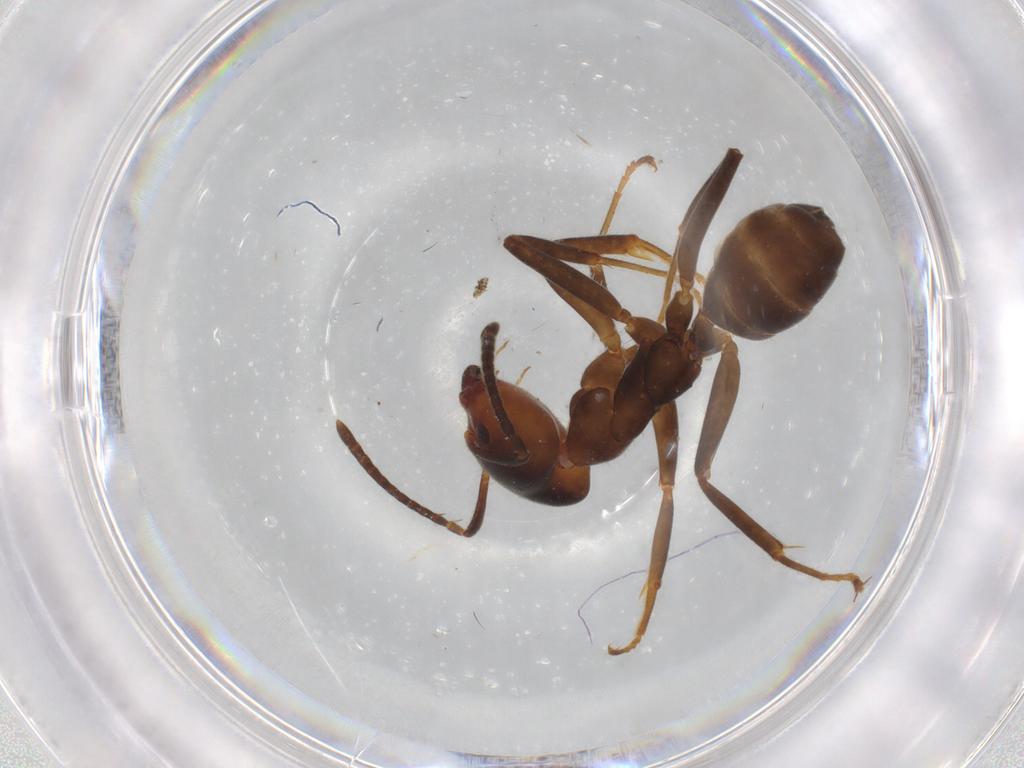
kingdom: Animalia
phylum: Arthropoda
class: Insecta
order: Hymenoptera
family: Formicidae
